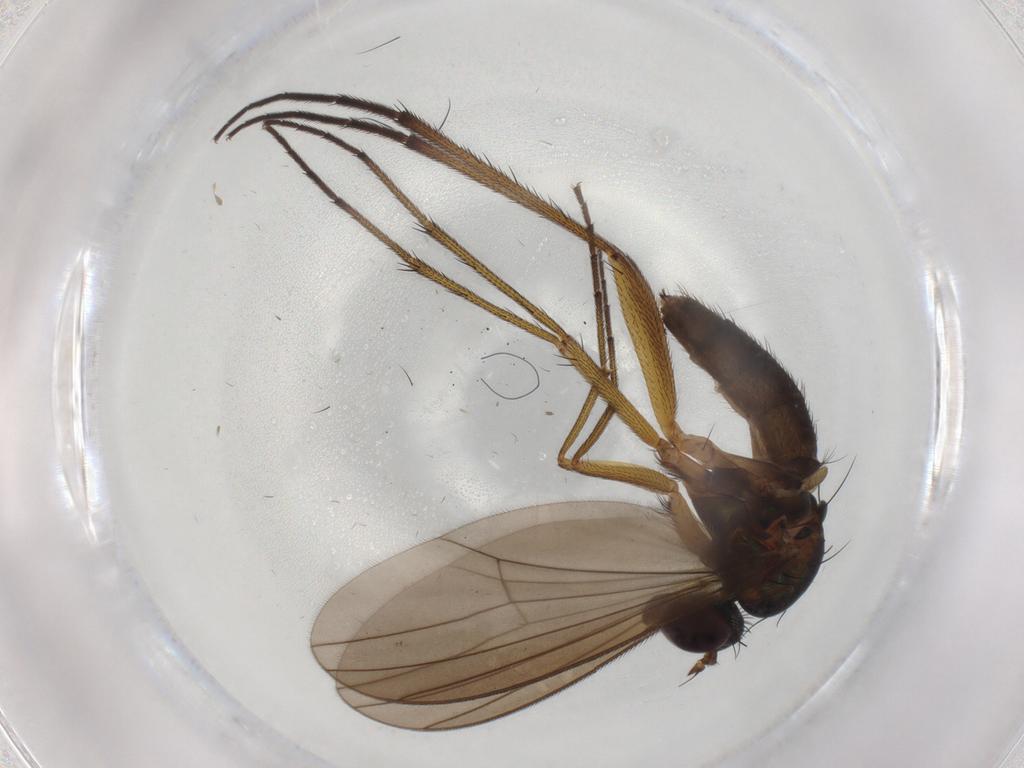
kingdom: Animalia
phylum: Arthropoda
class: Insecta
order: Diptera
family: Dolichopodidae
